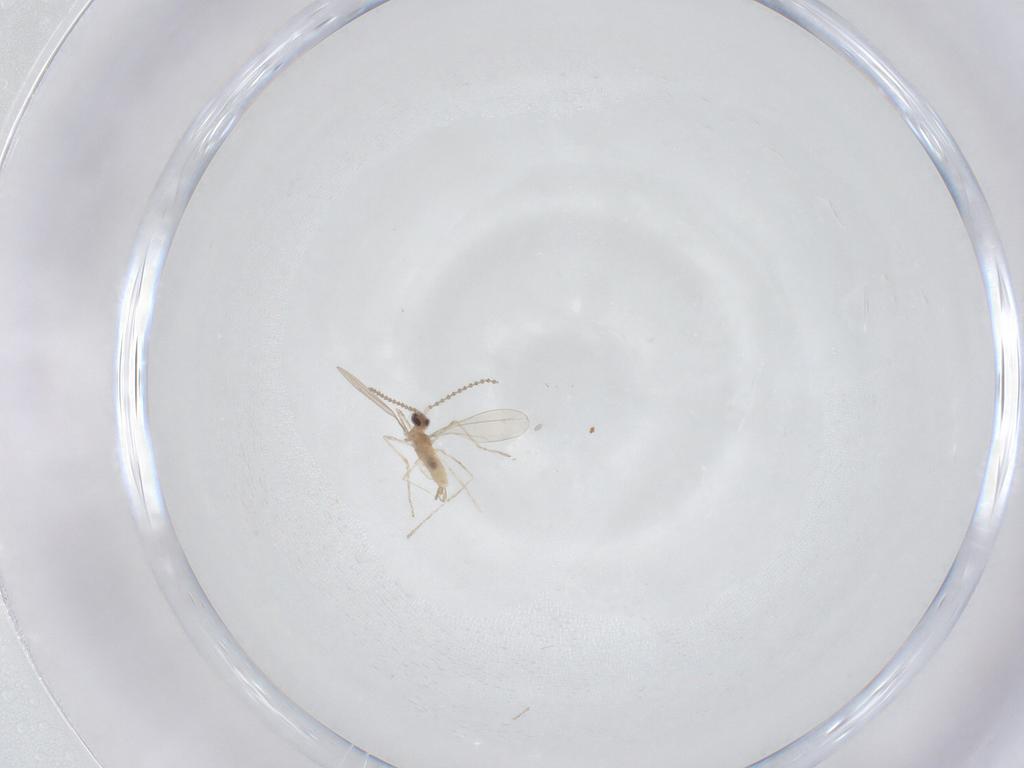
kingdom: Animalia
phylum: Arthropoda
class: Insecta
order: Diptera
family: Cecidomyiidae
